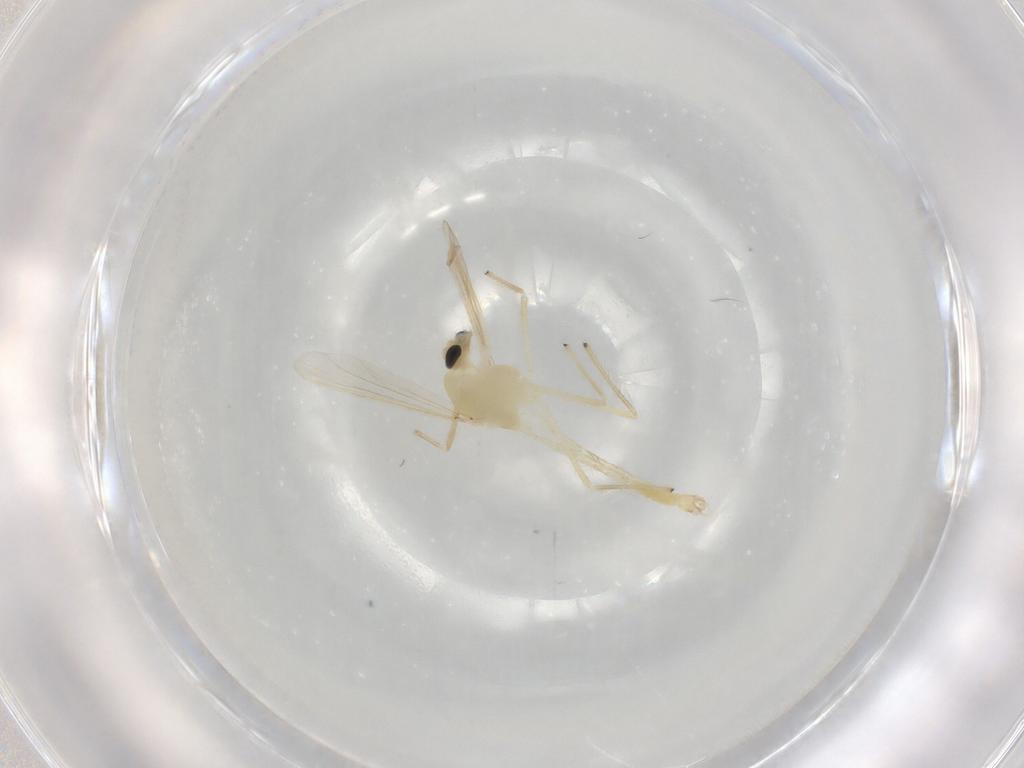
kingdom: Animalia
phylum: Arthropoda
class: Insecta
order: Diptera
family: Chironomidae
